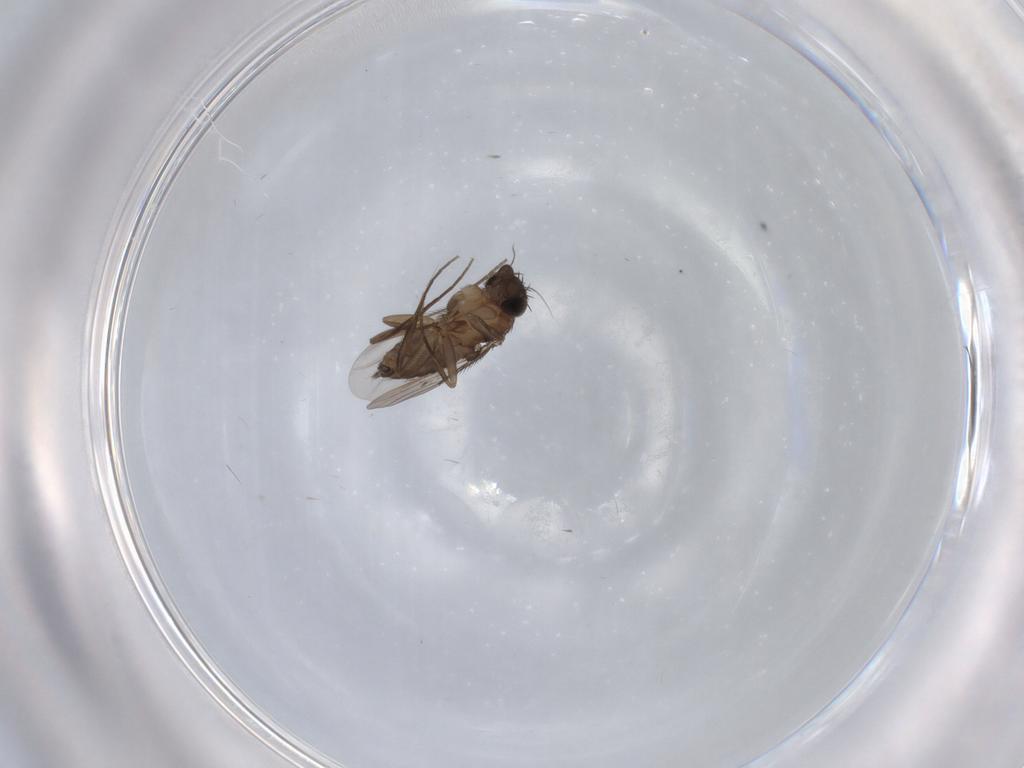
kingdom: Animalia
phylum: Arthropoda
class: Insecta
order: Diptera
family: Phoridae
